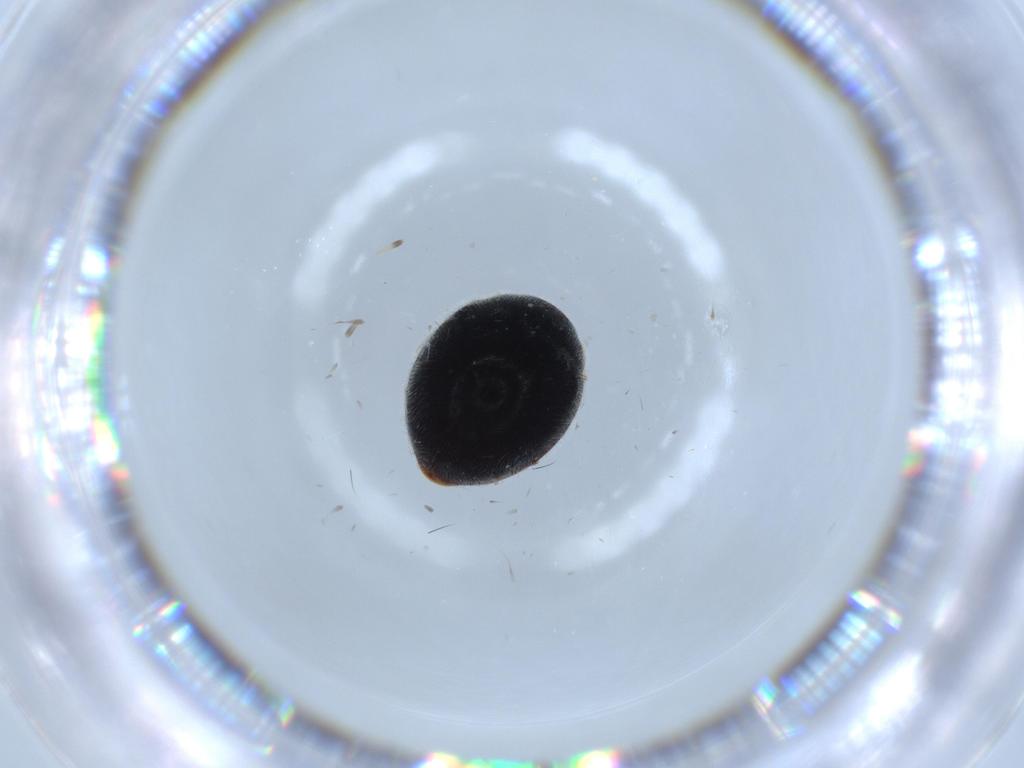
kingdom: Animalia
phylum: Arthropoda
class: Insecta
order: Coleoptera
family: Coccinellidae
